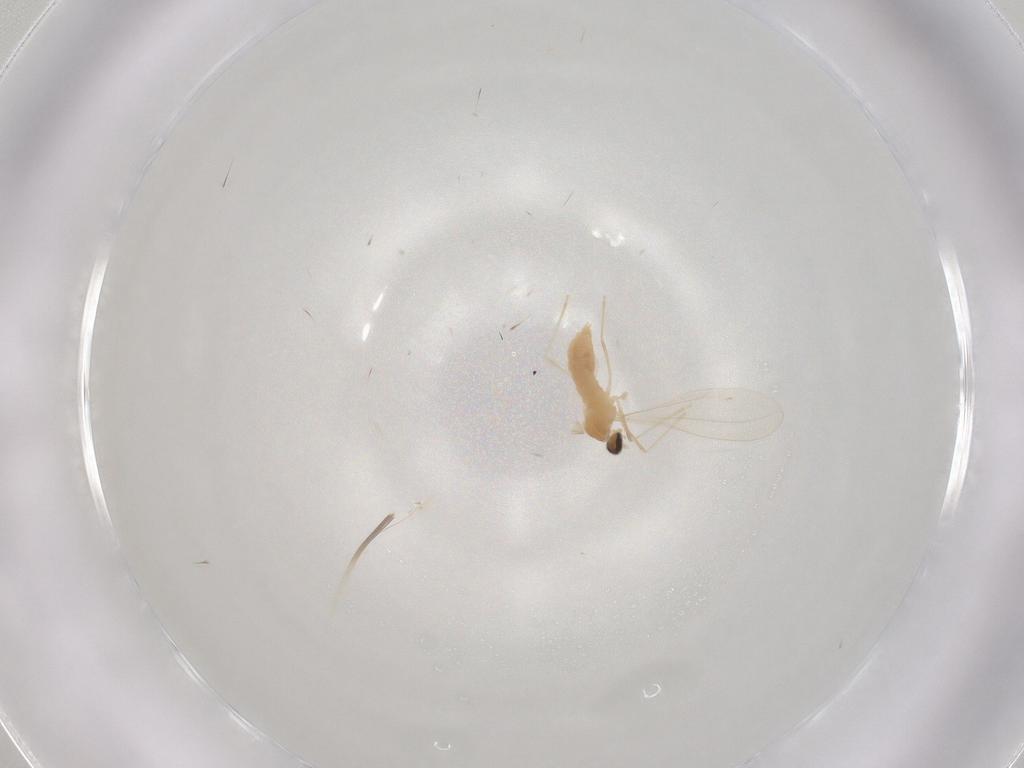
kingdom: Animalia
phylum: Arthropoda
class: Insecta
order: Diptera
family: Cecidomyiidae
